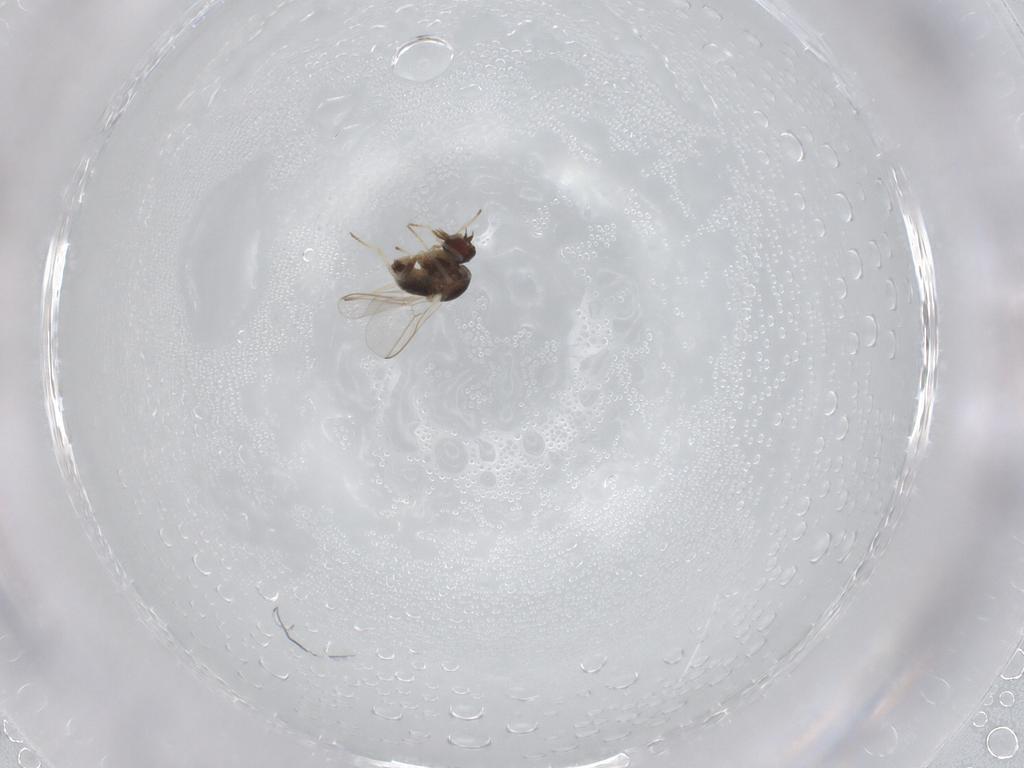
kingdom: Animalia
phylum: Arthropoda
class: Insecta
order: Diptera
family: Bombyliidae
